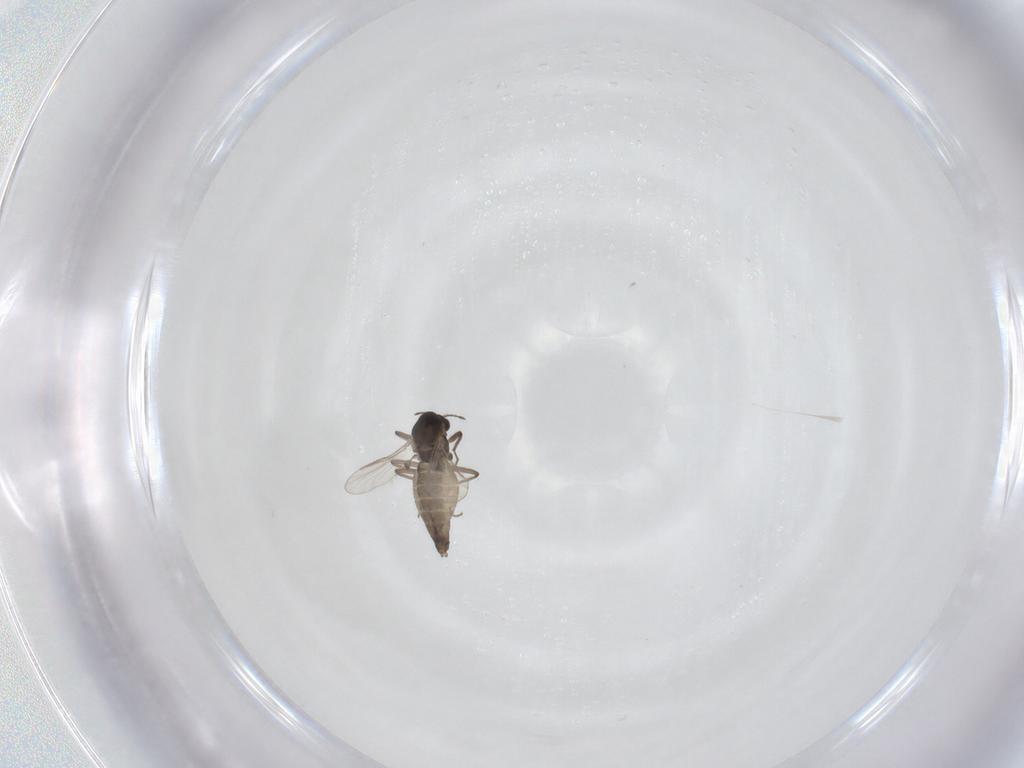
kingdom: Animalia
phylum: Arthropoda
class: Insecta
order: Diptera
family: Chironomidae
